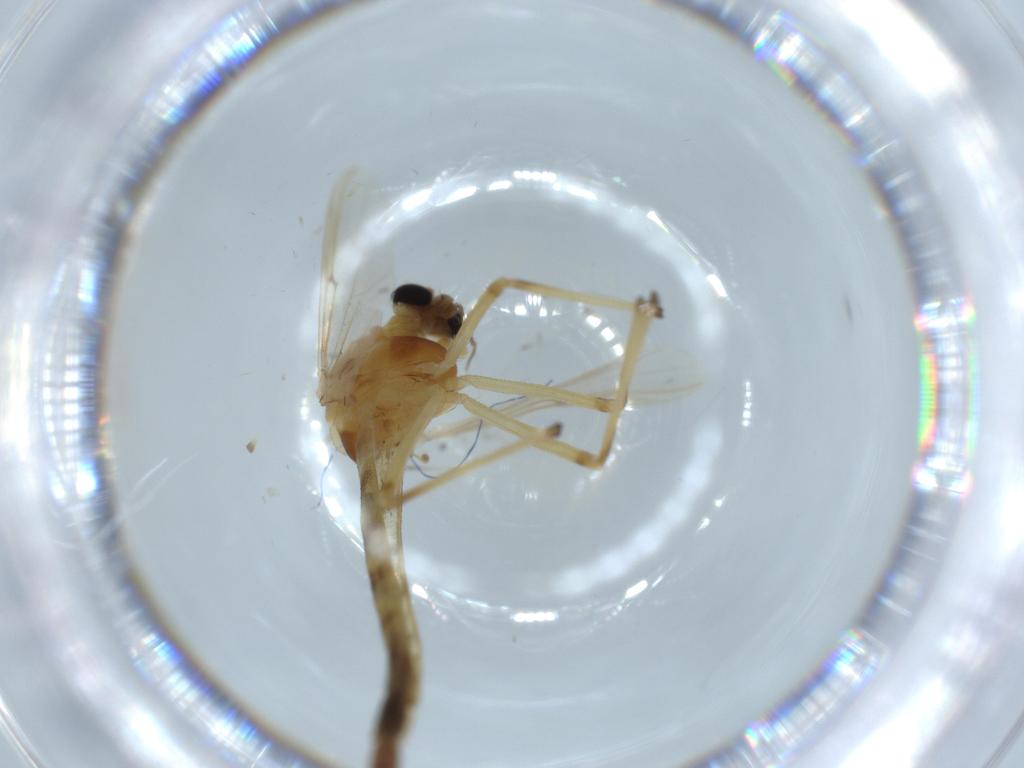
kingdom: Animalia
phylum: Arthropoda
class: Insecta
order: Diptera
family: Chironomidae
